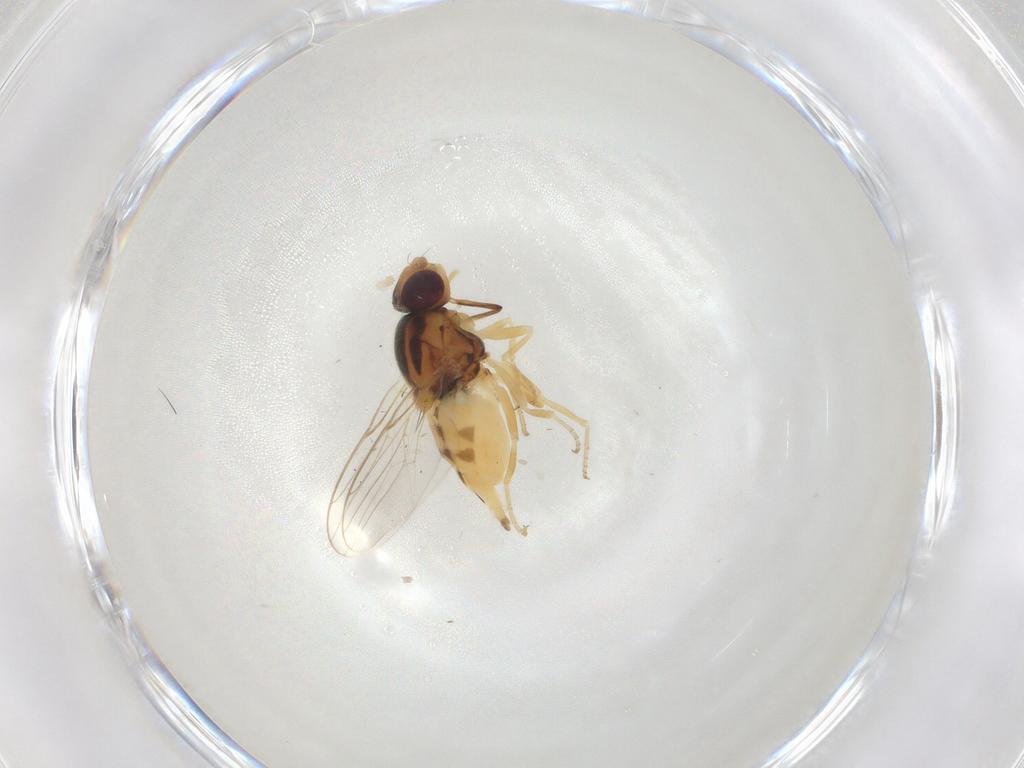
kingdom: Animalia
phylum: Arthropoda
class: Insecta
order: Diptera
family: Chloropidae
